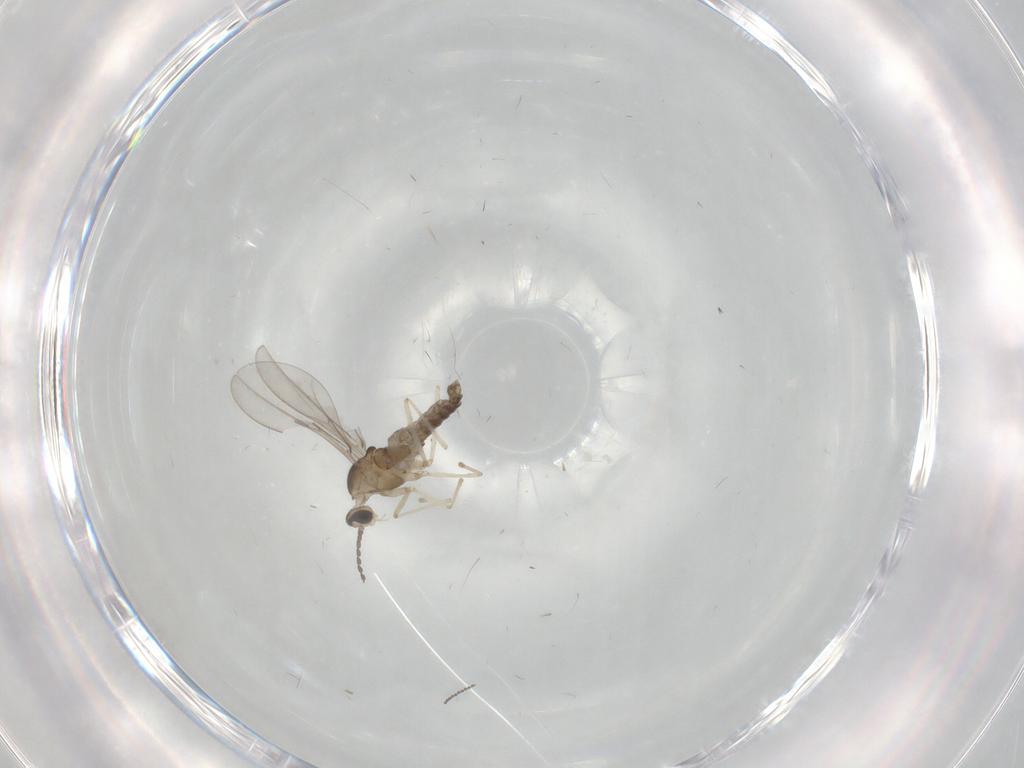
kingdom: Animalia
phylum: Arthropoda
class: Insecta
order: Diptera
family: Cecidomyiidae
